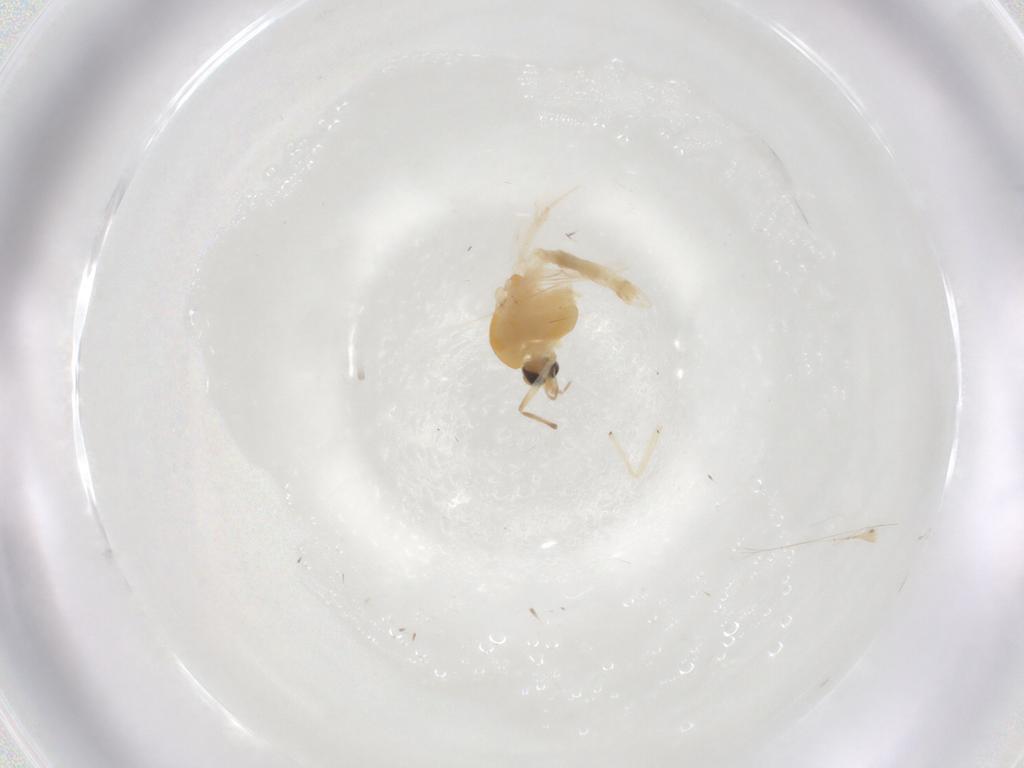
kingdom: Animalia
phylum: Arthropoda
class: Insecta
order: Diptera
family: Chironomidae
